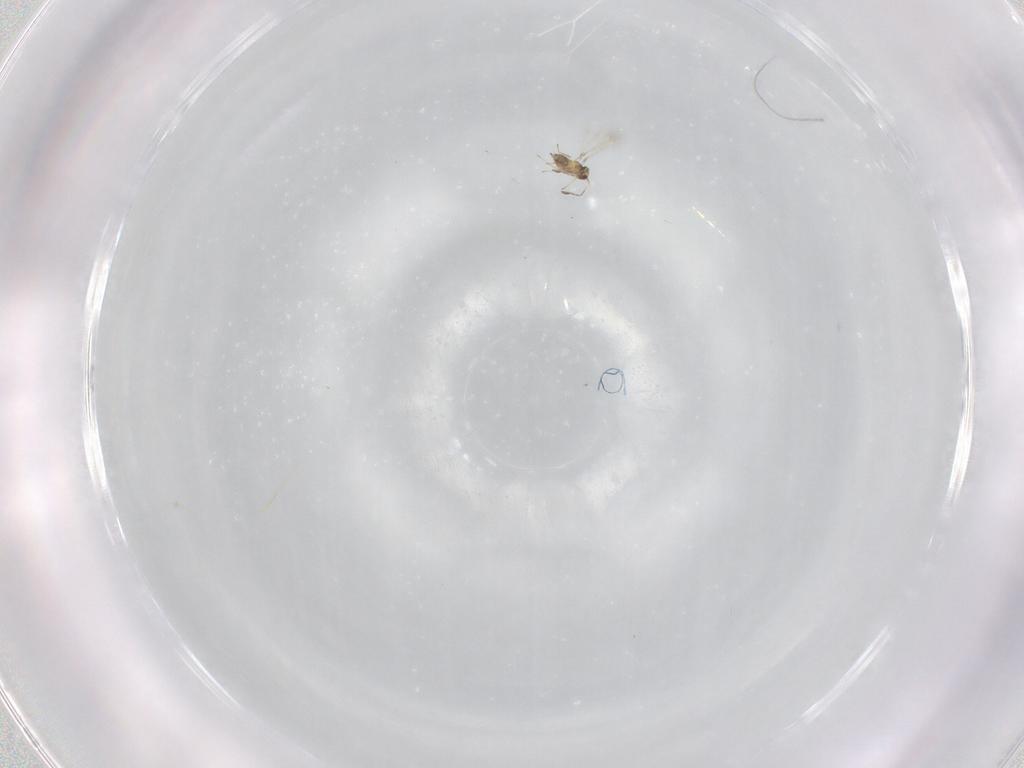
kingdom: Animalia
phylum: Arthropoda
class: Insecta
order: Hymenoptera
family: Mymaridae
